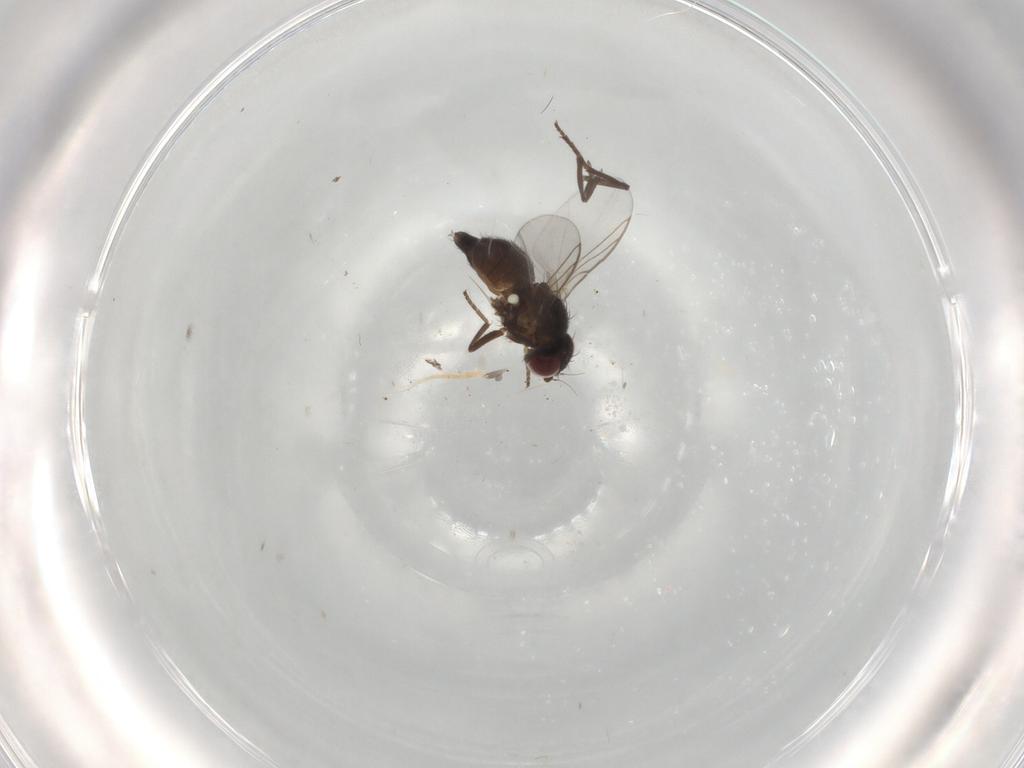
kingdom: Animalia
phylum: Arthropoda
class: Insecta
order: Diptera
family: Agromyzidae
